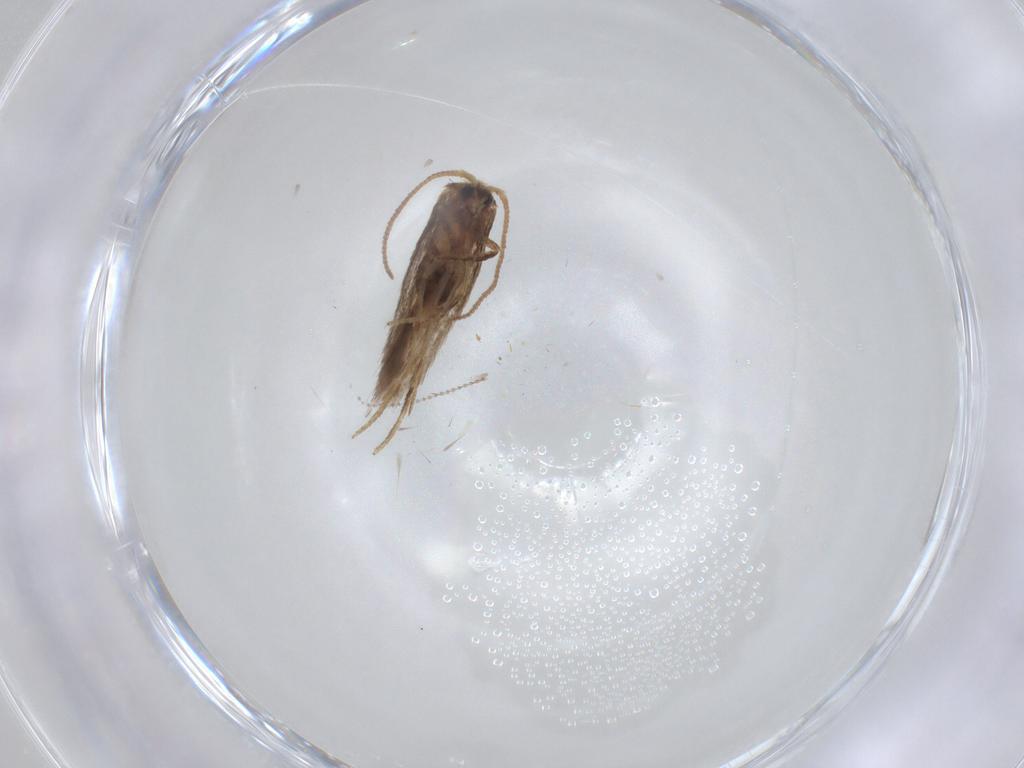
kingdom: Animalia
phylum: Arthropoda
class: Insecta
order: Lepidoptera
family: Nepticulidae
